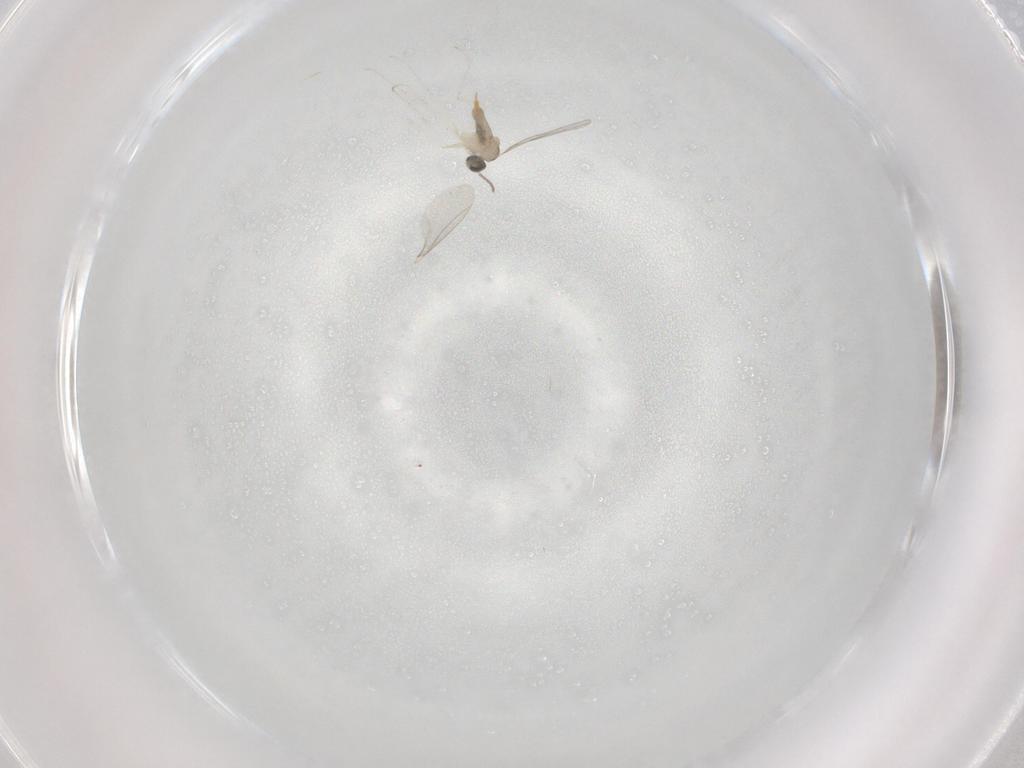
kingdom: Animalia
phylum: Arthropoda
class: Insecta
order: Diptera
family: Cecidomyiidae
